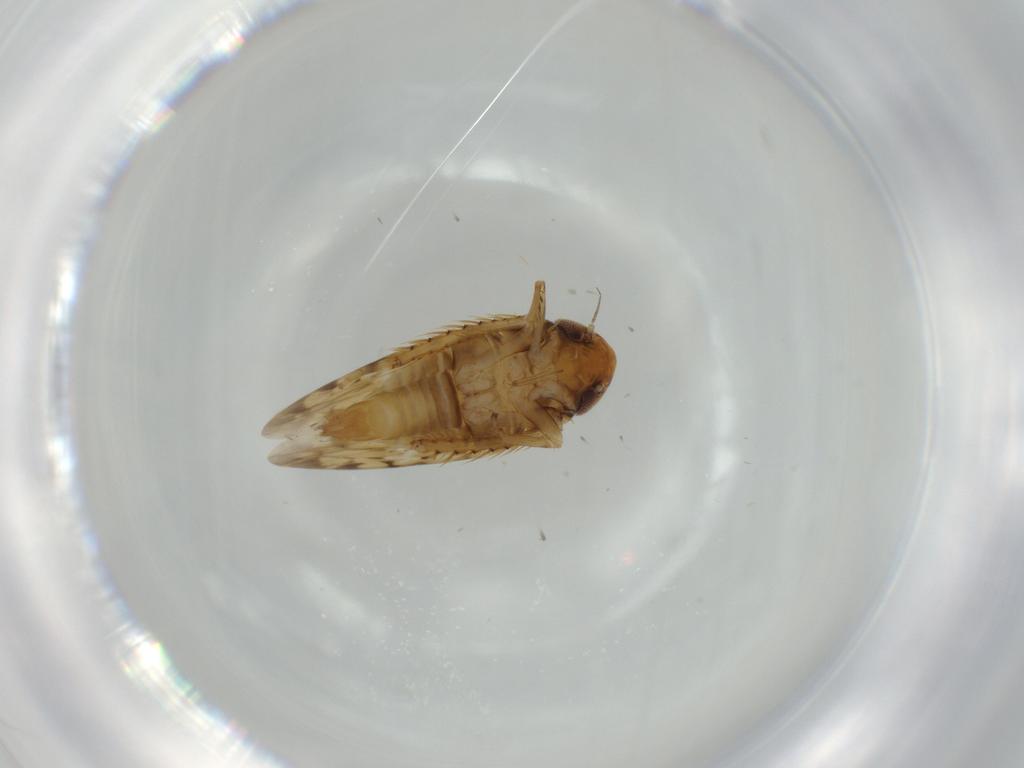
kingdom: Animalia
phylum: Arthropoda
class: Insecta
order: Hemiptera
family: Cicadellidae
